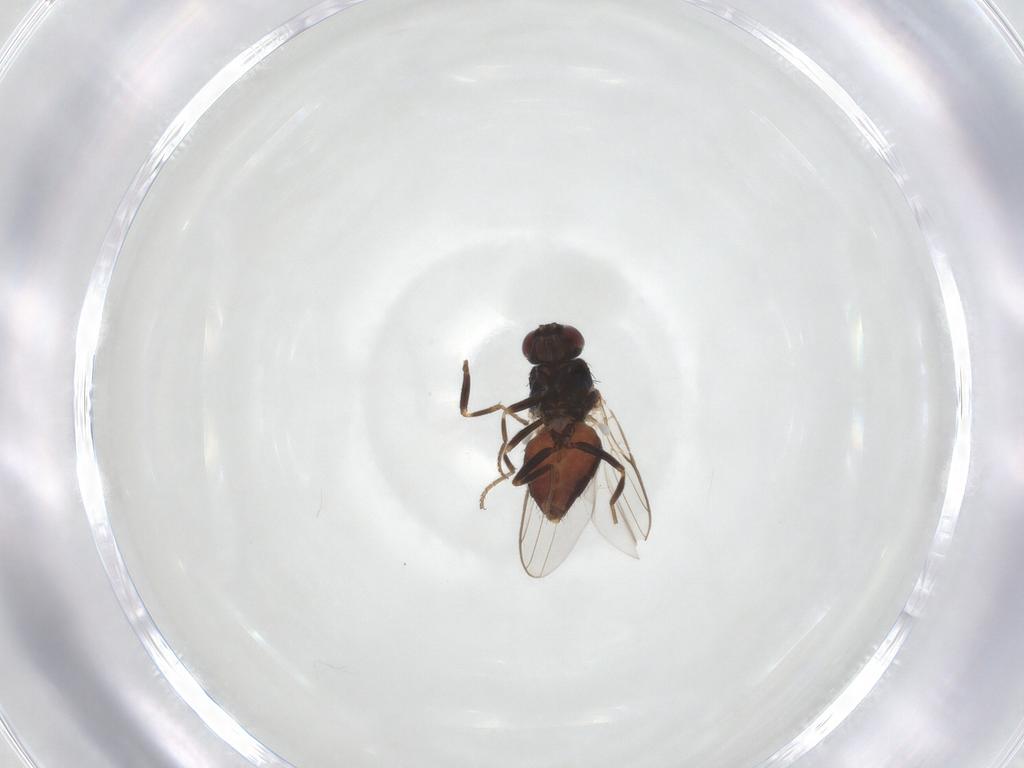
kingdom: Animalia
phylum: Arthropoda
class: Insecta
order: Diptera
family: Chloropidae
